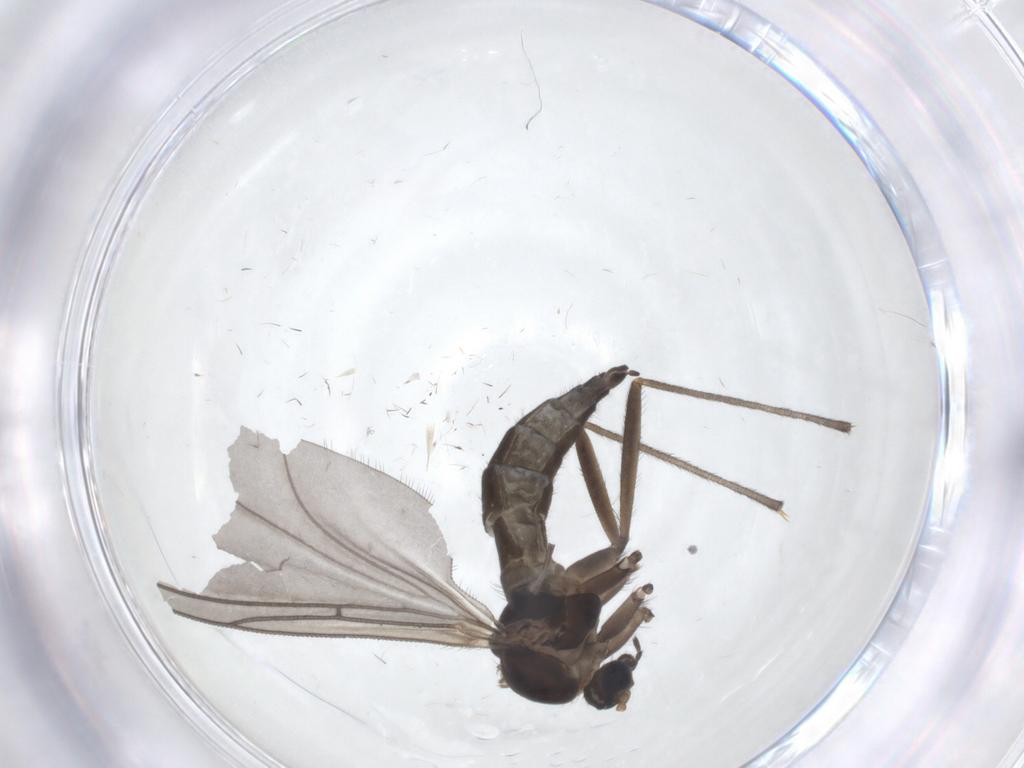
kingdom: Animalia
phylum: Arthropoda
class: Insecta
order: Diptera
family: Sciaridae
